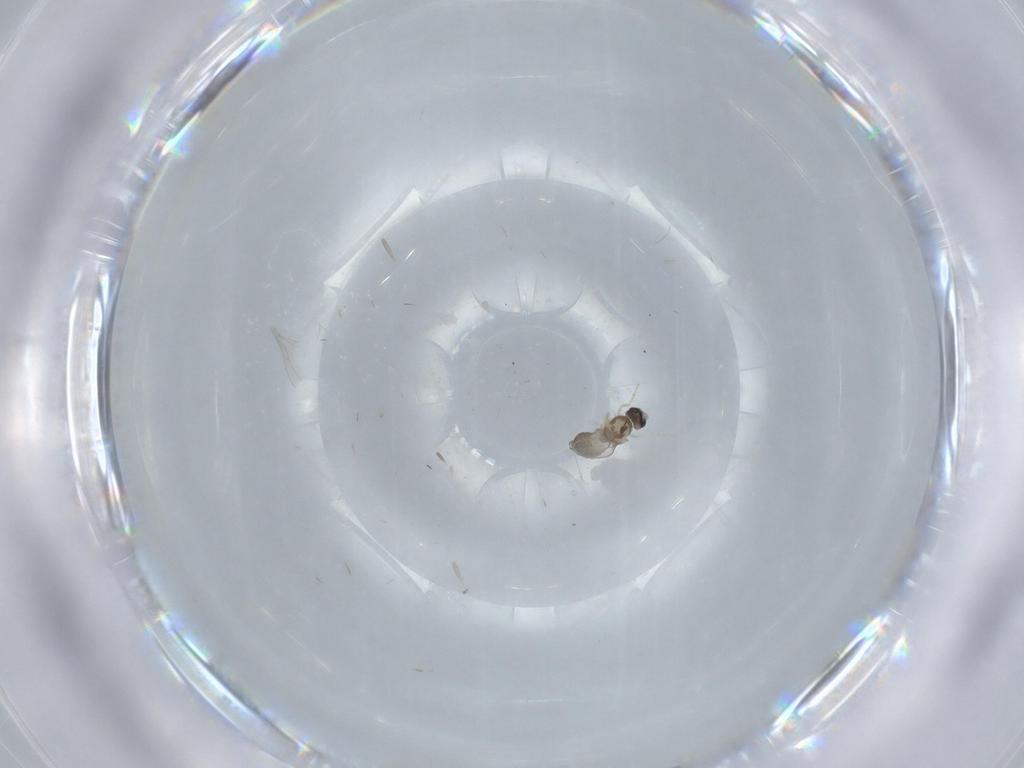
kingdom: Animalia
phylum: Arthropoda
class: Insecta
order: Diptera
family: Cecidomyiidae
